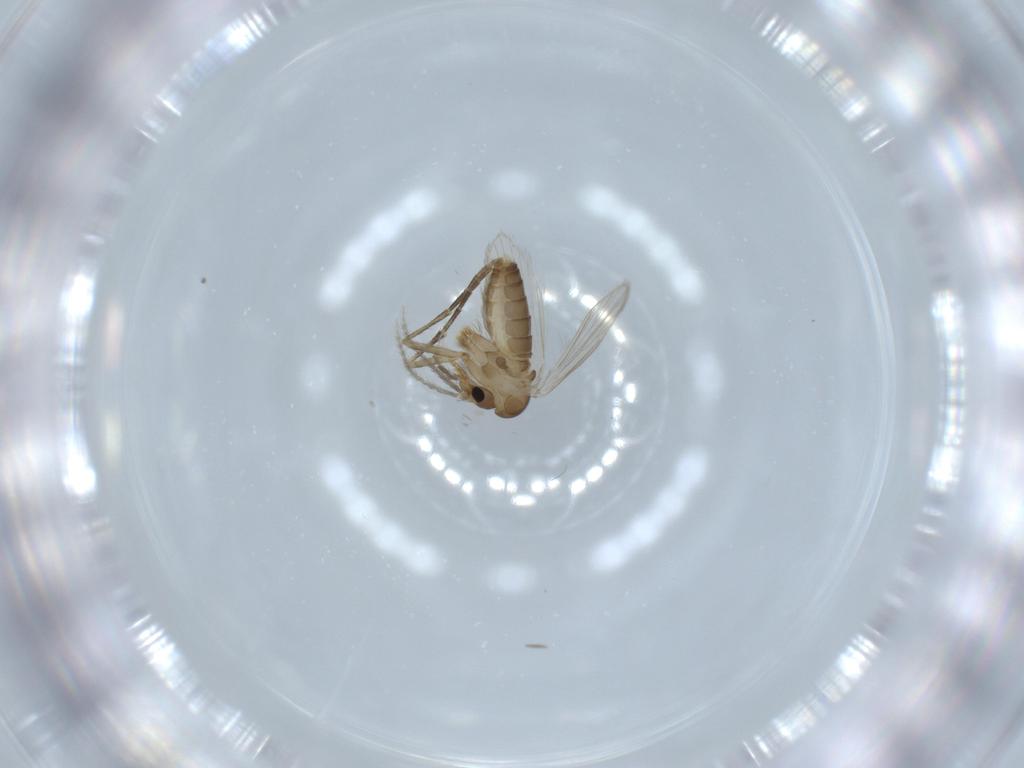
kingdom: Animalia
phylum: Arthropoda
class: Insecta
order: Diptera
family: Psychodidae
